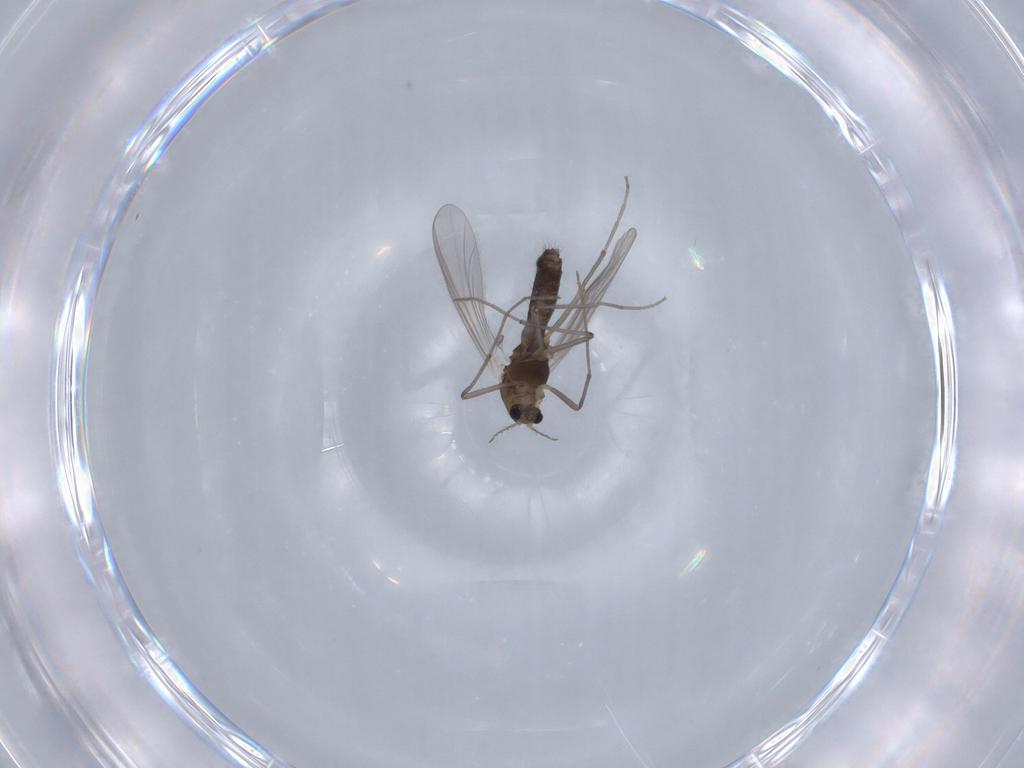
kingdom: Animalia
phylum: Arthropoda
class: Insecta
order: Diptera
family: Chironomidae
